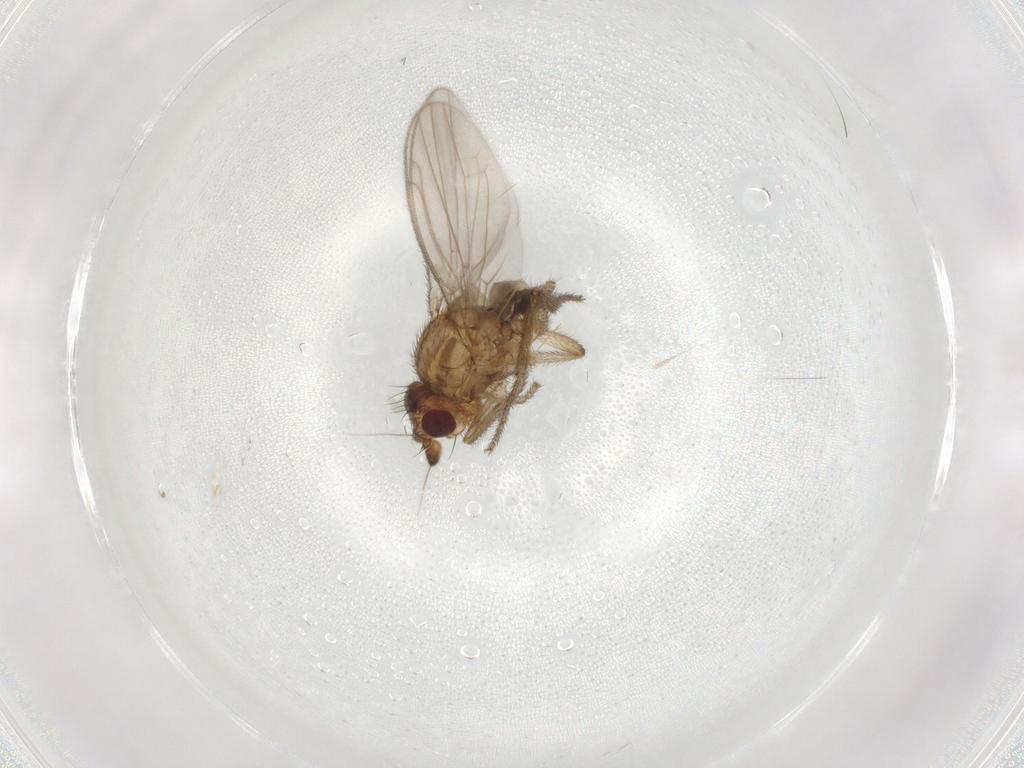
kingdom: Animalia
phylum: Arthropoda
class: Insecta
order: Diptera
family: Sphaeroceridae
